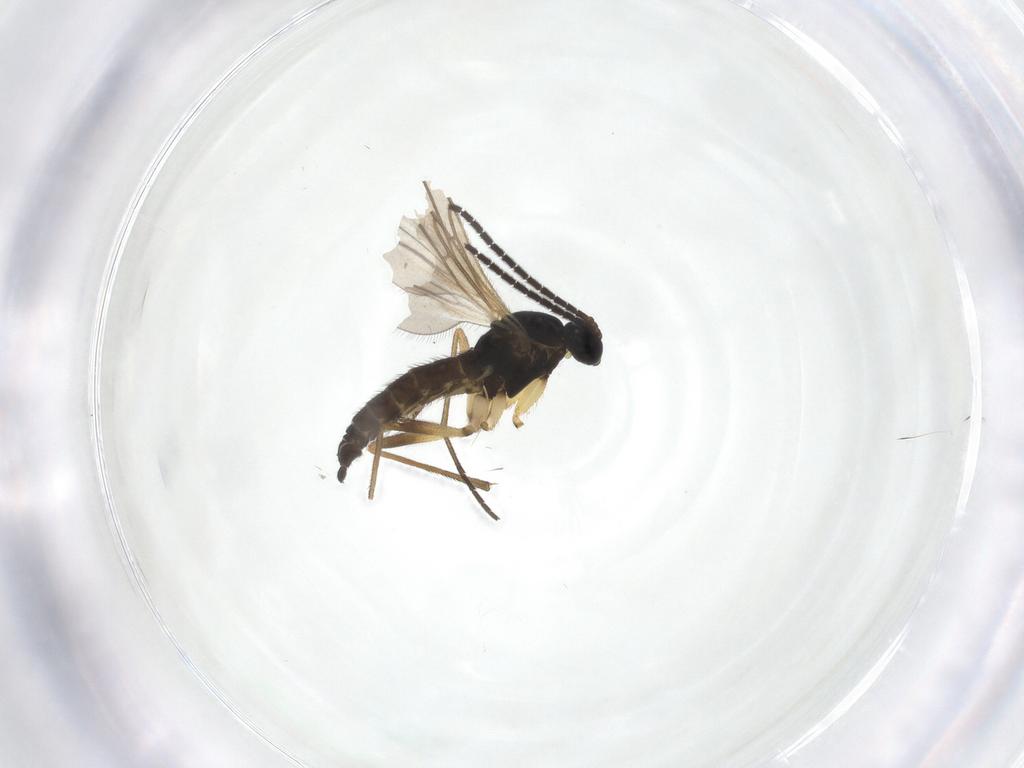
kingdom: Animalia
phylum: Arthropoda
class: Insecta
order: Diptera
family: Sciaridae
